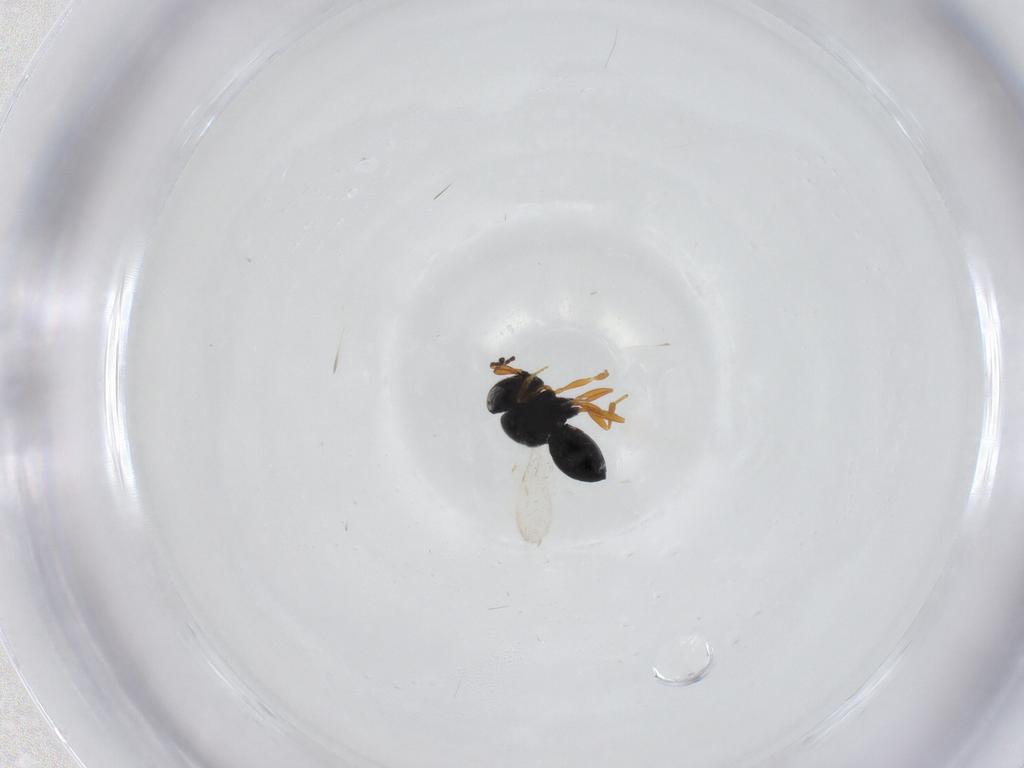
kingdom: Animalia
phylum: Arthropoda
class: Insecta
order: Hymenoptera
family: Scelionidae
